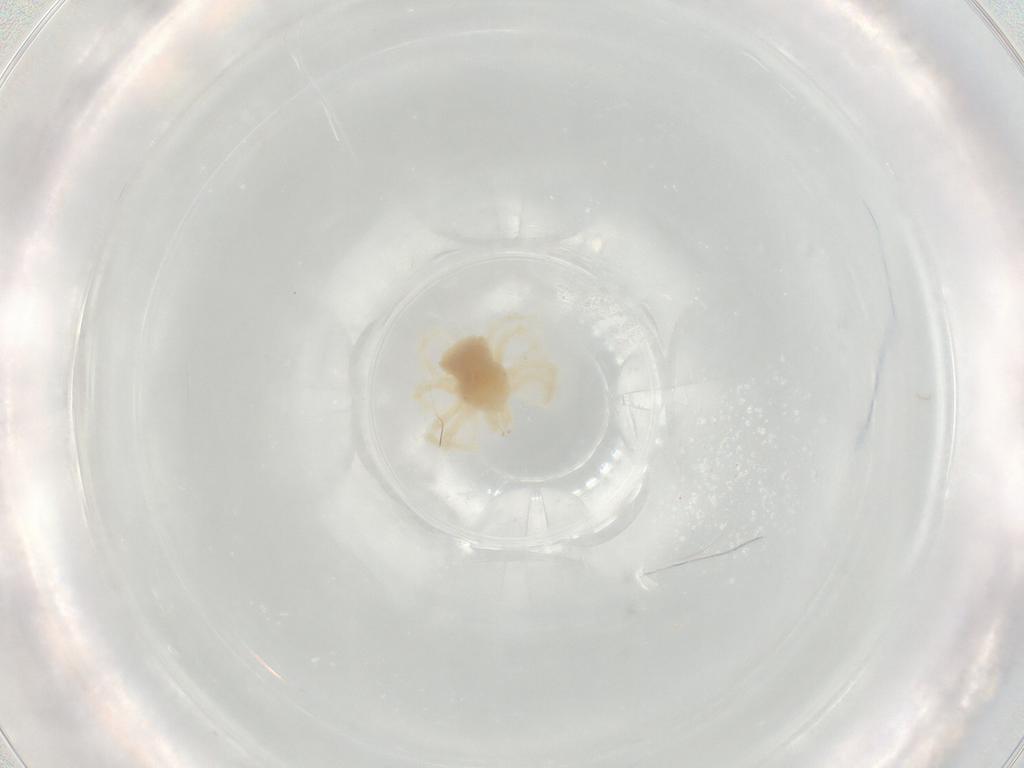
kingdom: Animalia
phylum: Arthropoda
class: Arachnida
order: Trombidiformes
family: Anystidae
